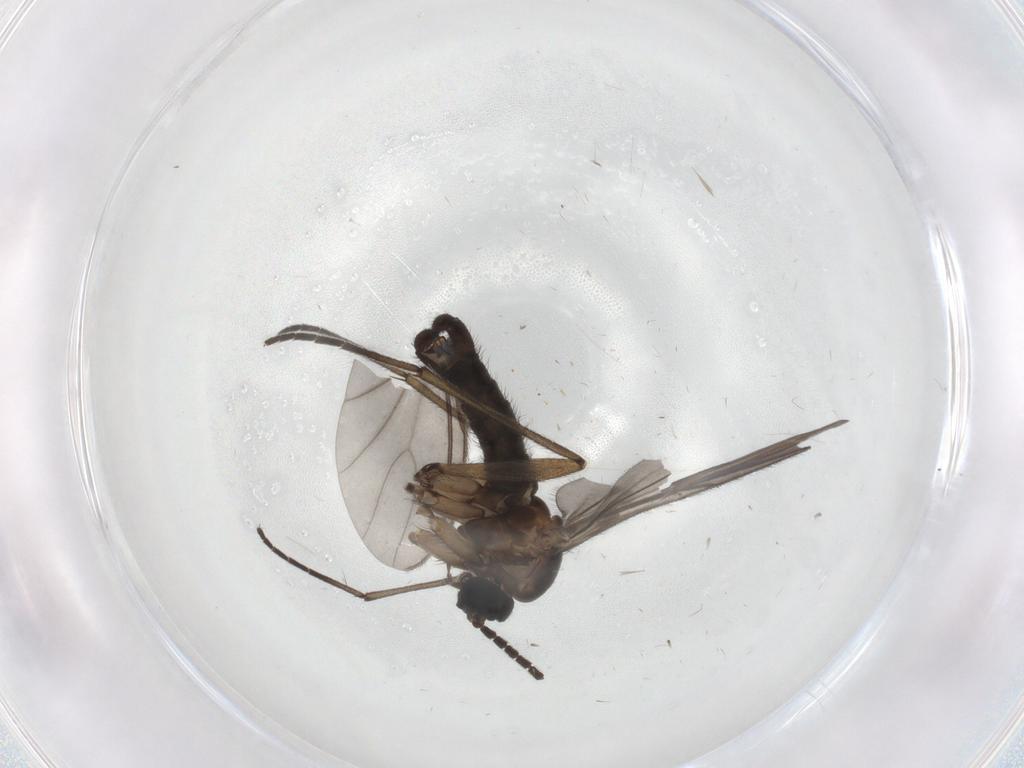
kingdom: Animalia
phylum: Arthropoda
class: Insecta
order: Diptera
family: Sciaridae
